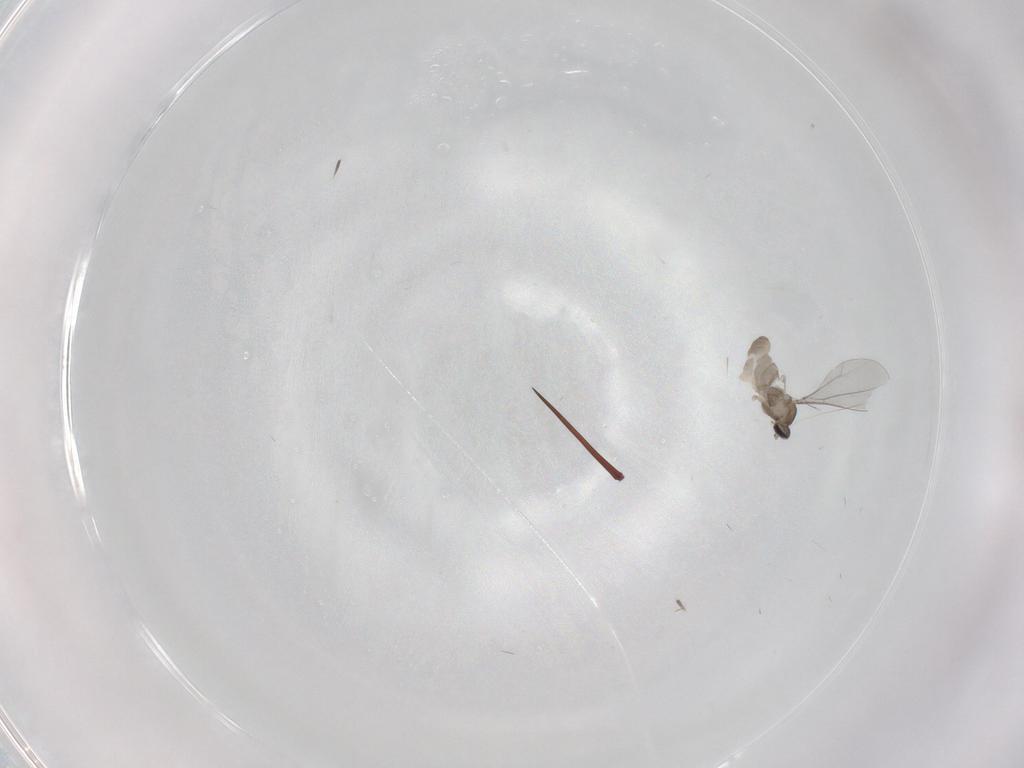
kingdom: Animalia
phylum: Arthropoda
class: Insecta
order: Diptera
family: Cecidomyiidae
